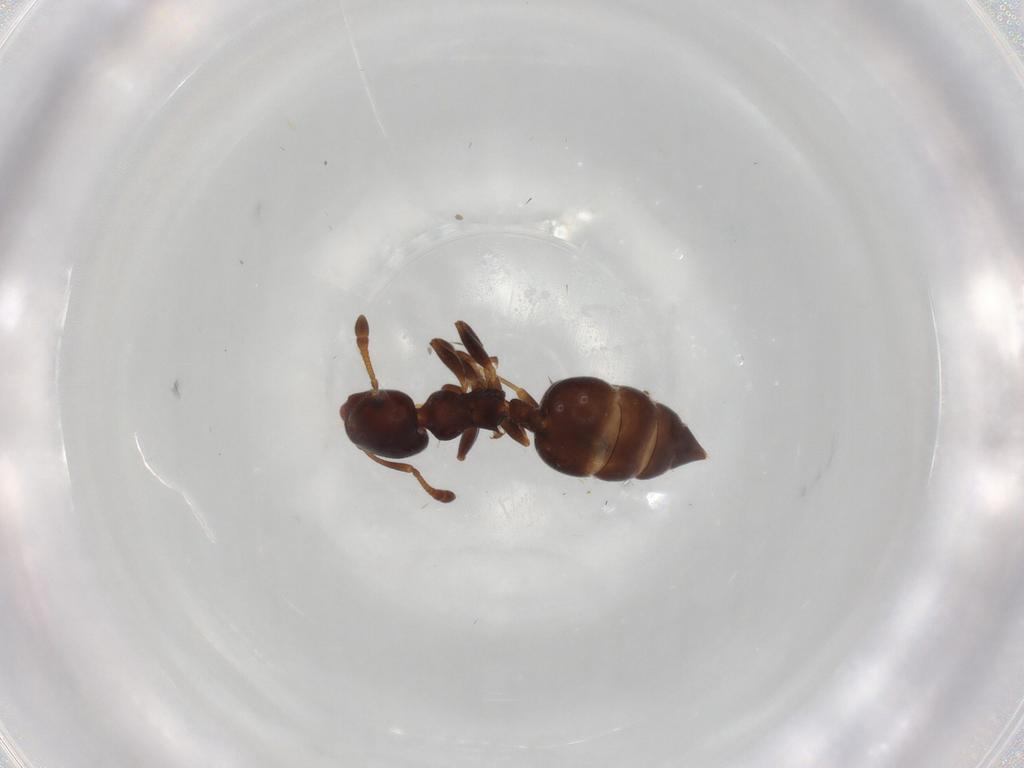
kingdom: Animalia
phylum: Arthropoda
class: Insecta
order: Hymenoptera
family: Formicidae
